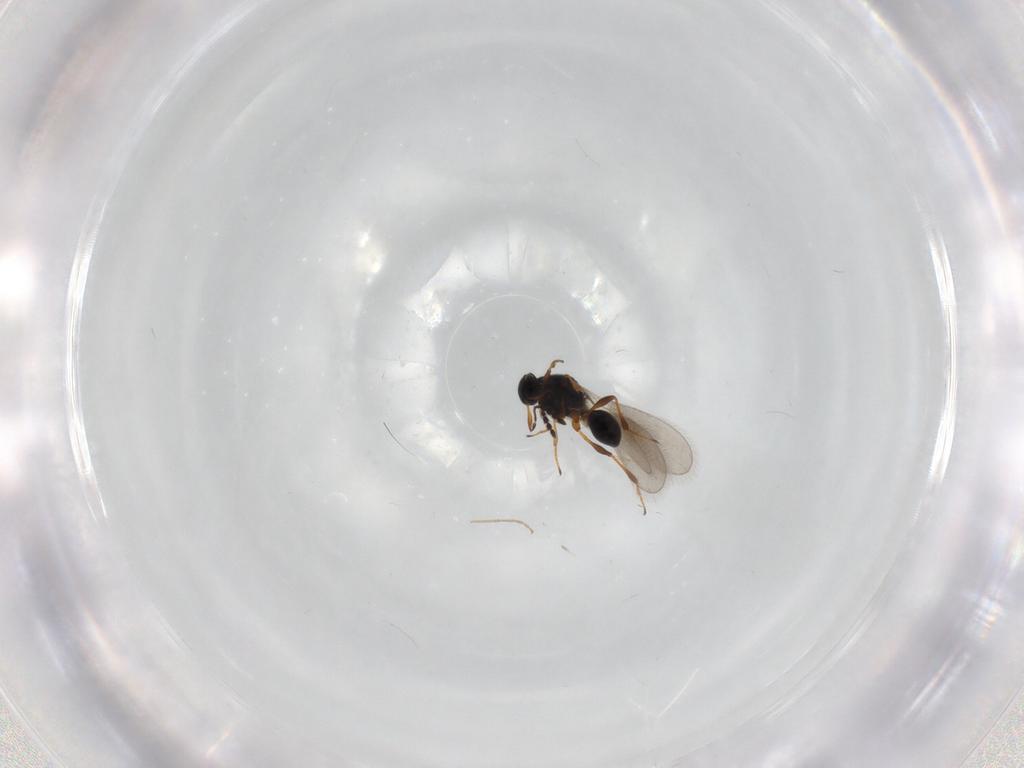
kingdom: Animalia
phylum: Arthropoda
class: Insecta
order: Hymenoptera
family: Platygastridae
